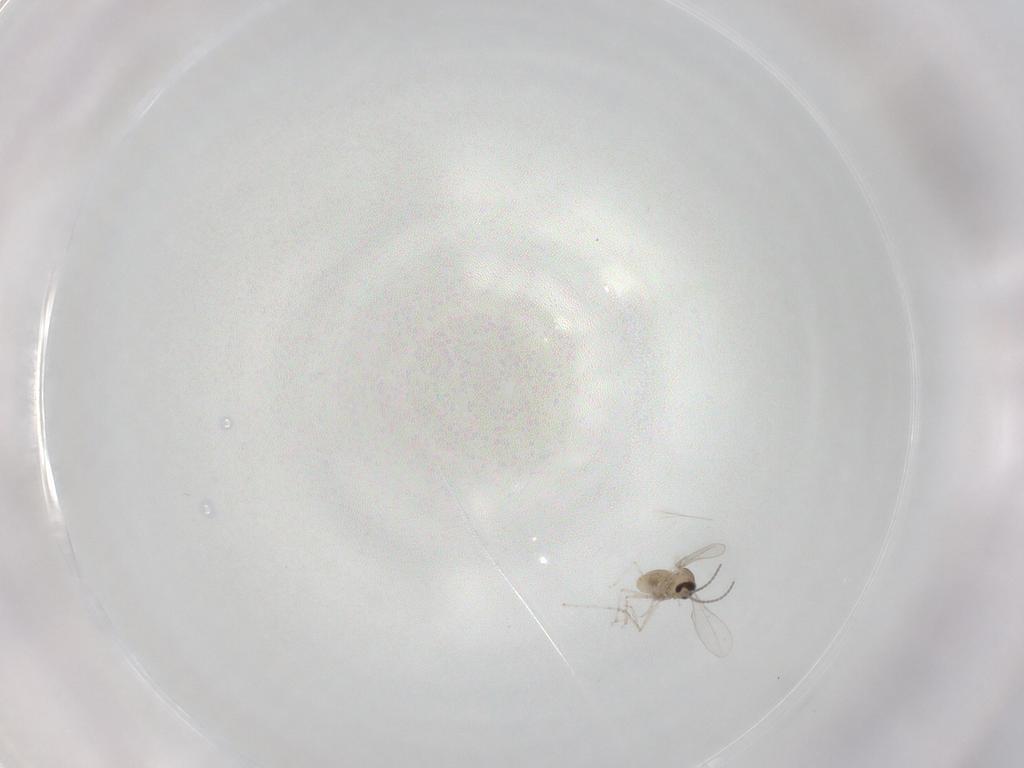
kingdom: Animalia
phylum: Arthropoda
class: Insecta
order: Diptera
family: Cecidomyiidae
